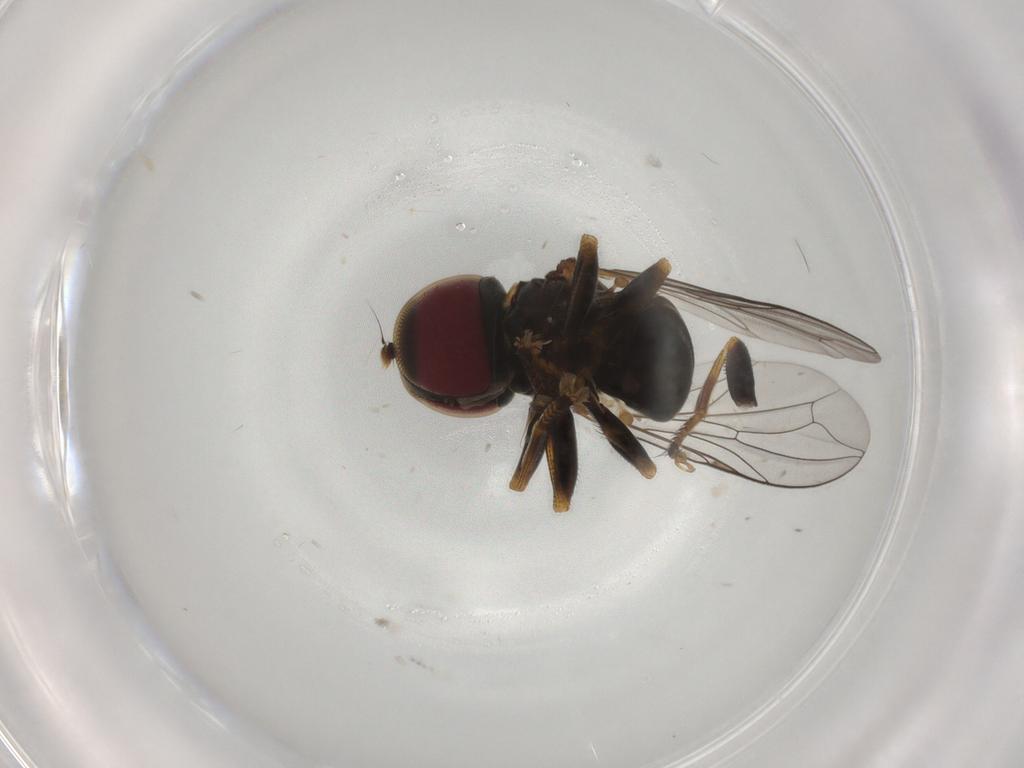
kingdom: Animalia
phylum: Arthropoda
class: Insecta
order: Diptera
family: Pipunculidae
